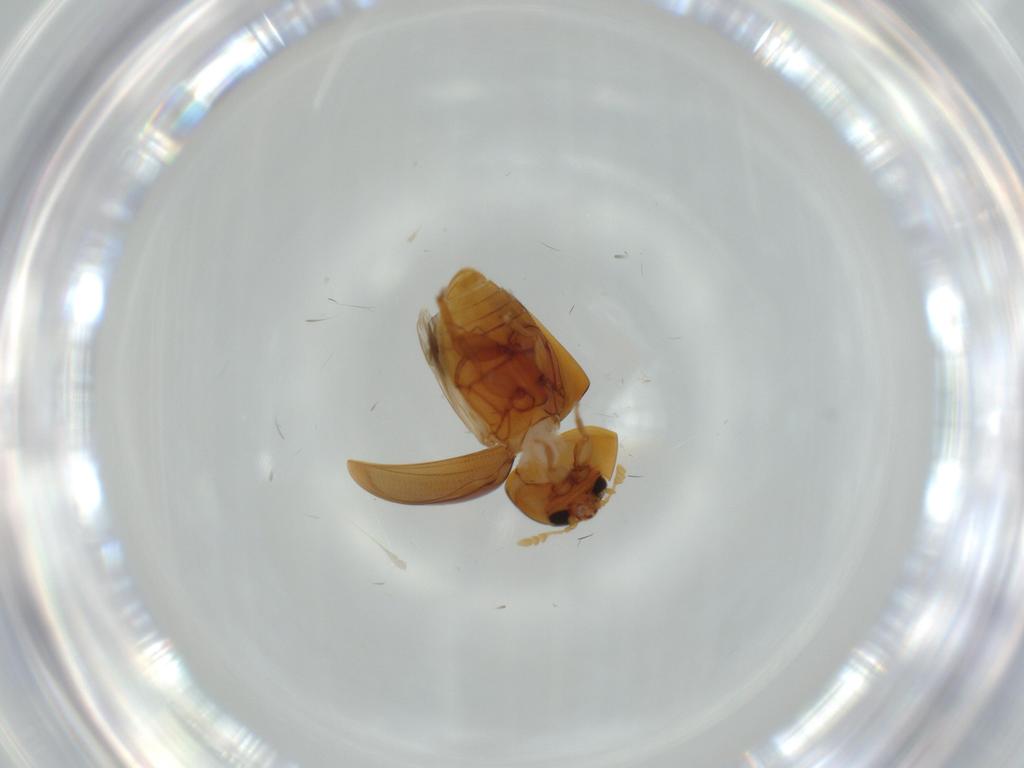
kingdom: Animalia
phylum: Arthropoda
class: Insecta
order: Coleoptera
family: Phalacridae
